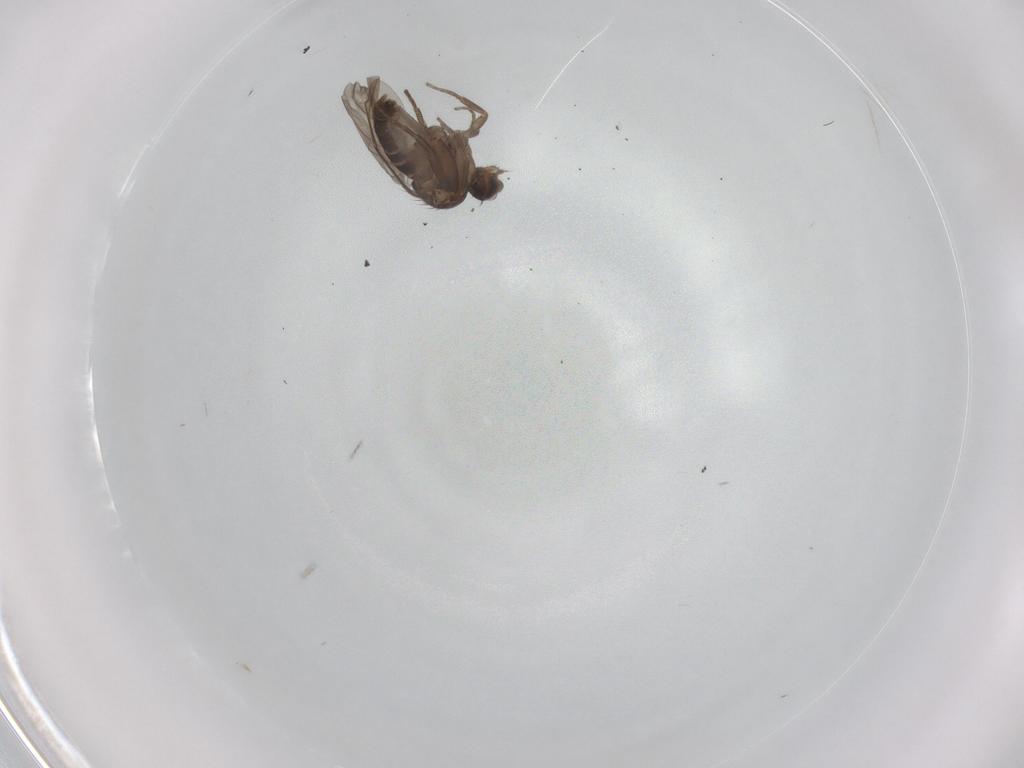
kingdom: Animalia
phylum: Arthropoda
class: Insecta
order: Diptera
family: Phoridae
